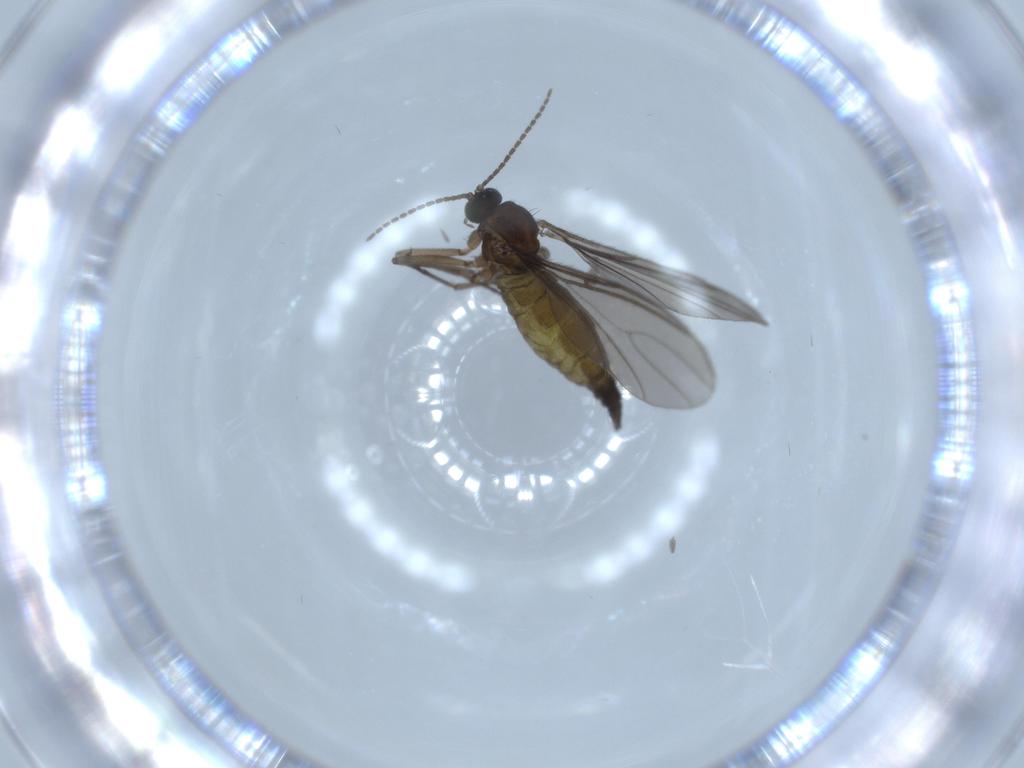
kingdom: Animalia
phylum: Arthropoda
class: Insecta
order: Diptera
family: Sciaridae
